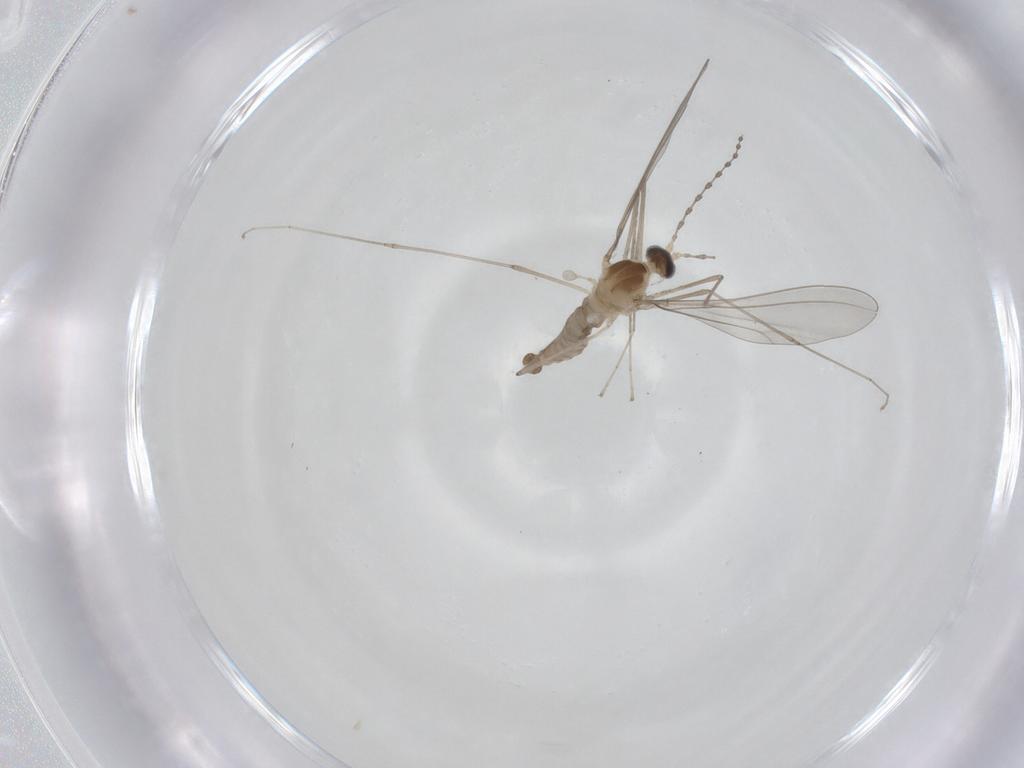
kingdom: Animalia
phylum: Arthropoda
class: Insecta
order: Diptera
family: Cecidomyiidae
